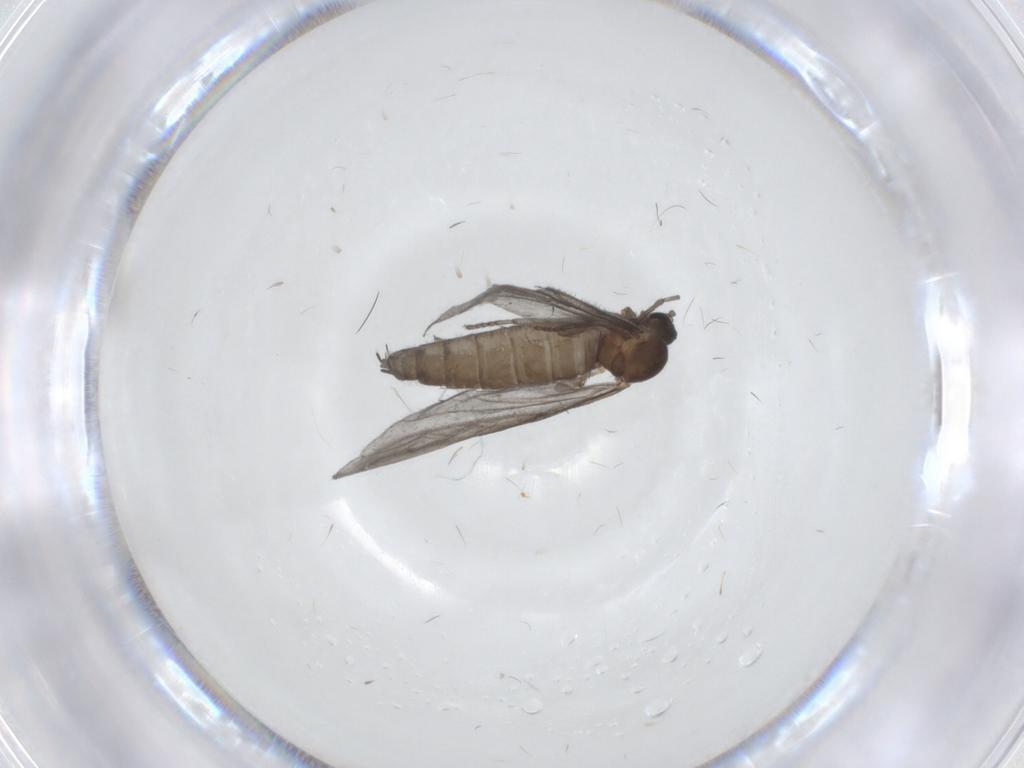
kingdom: Animalia
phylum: Arthropoda
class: Insecta
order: Diptera
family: Sciaridae
